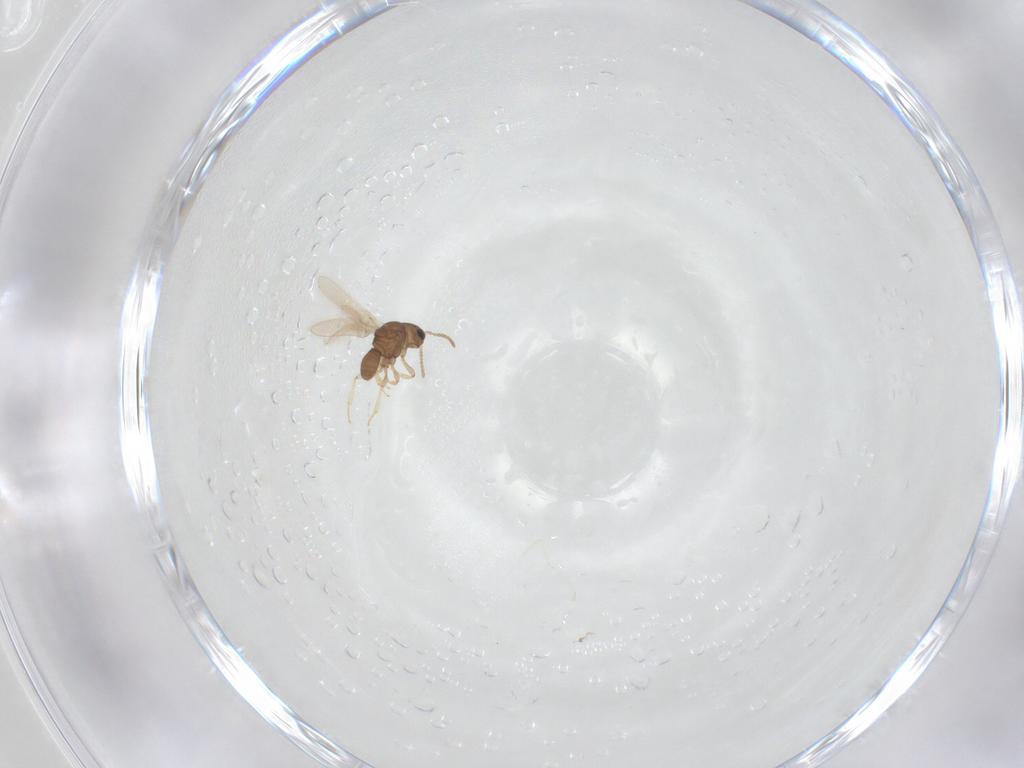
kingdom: Animalia
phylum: Arthropoda
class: Insecta
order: Hymenoptera
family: Scelionidae
